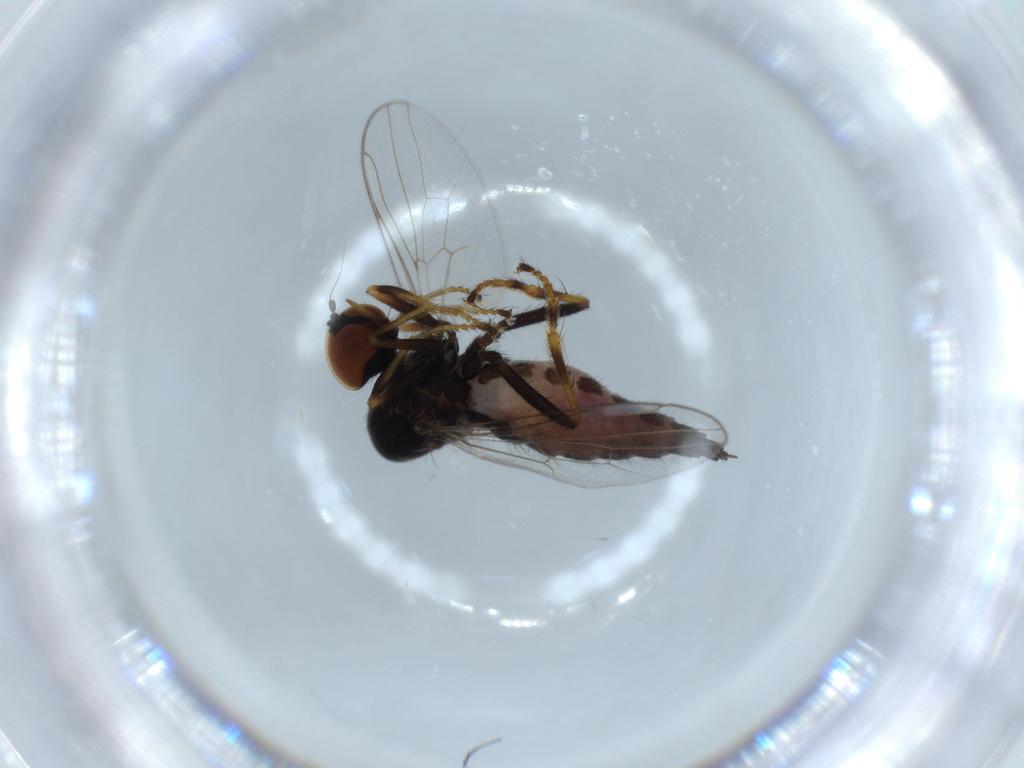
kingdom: Animalia
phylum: Arthropoda
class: Insecta
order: Diptera
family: Hybotidae
